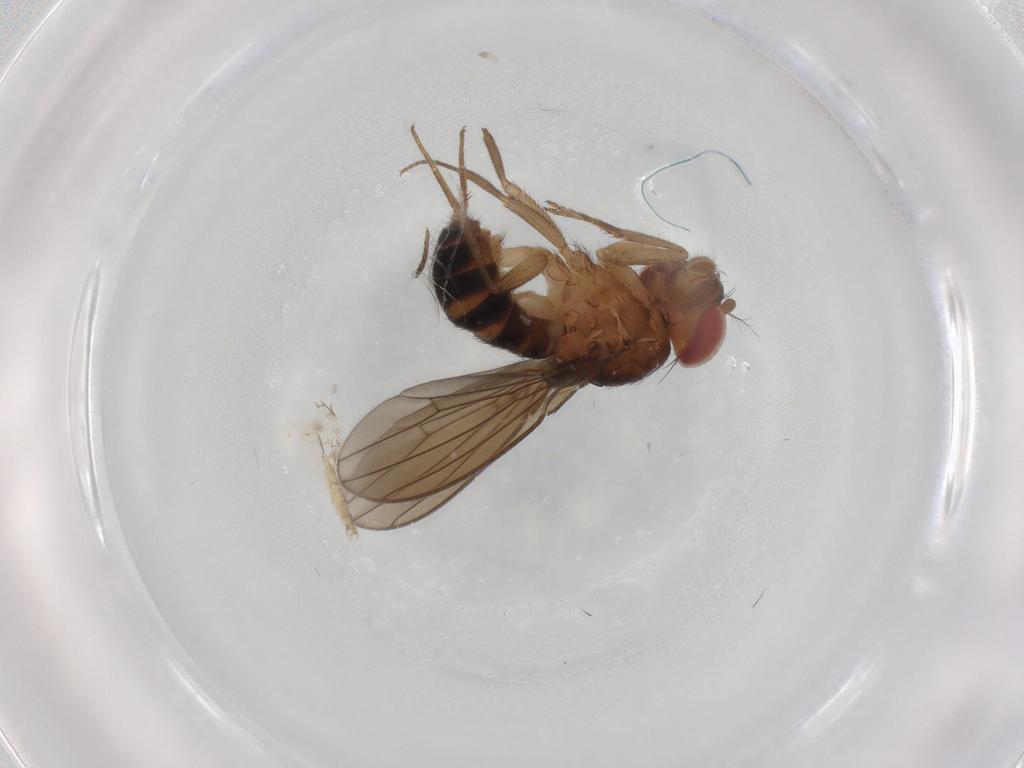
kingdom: Animalia
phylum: Arthropoda
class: Insecta
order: Diptera
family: Drosophilidae
